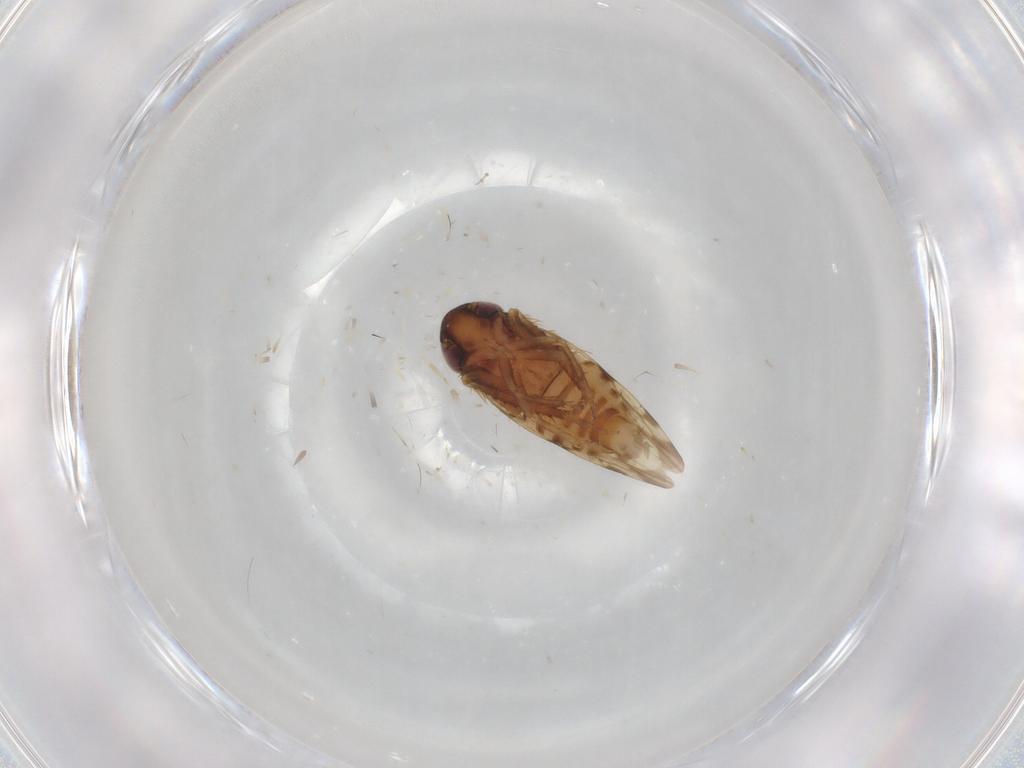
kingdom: Animalia
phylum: Arthropoda
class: Insecta
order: Hemiptera
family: Cicadellidae
